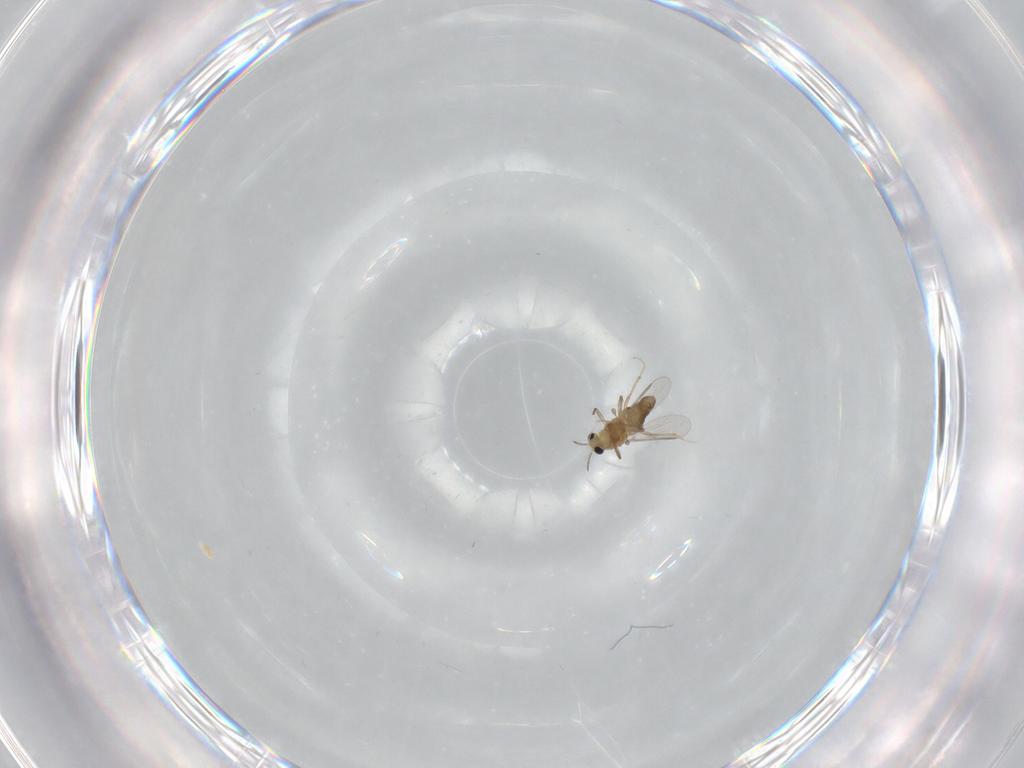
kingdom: Animalia
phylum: Arthropoda
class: Insecta
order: Diptera
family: Chironomidae
